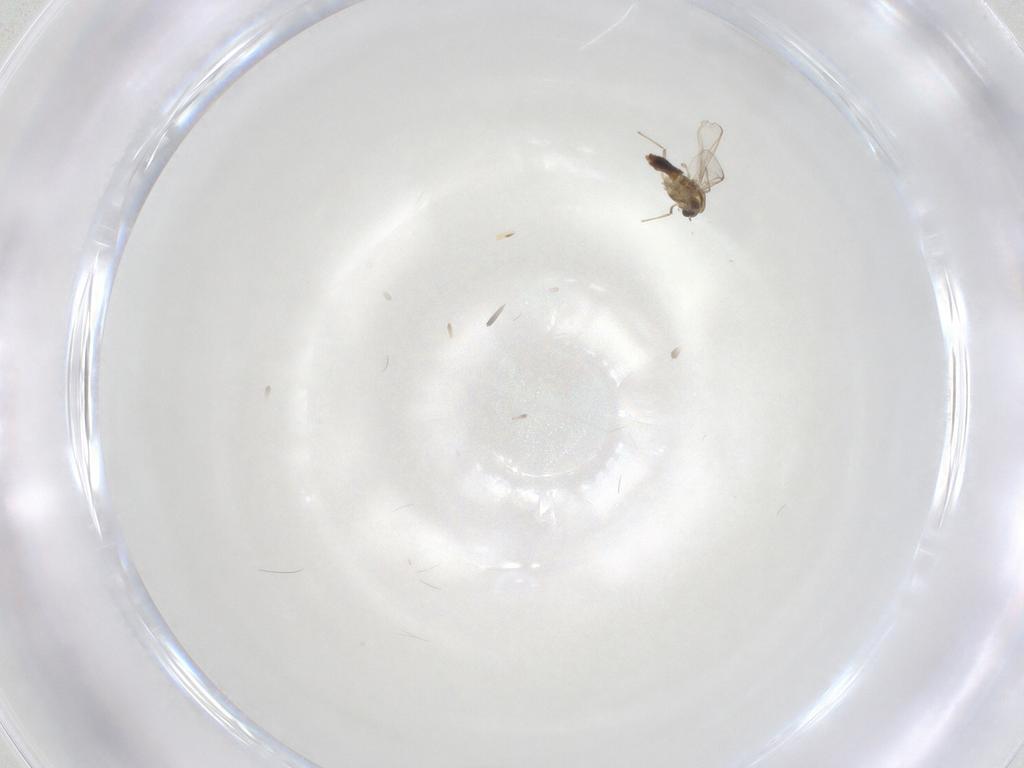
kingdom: Animalia
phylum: Arthropoda
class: Insecta
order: Diptera
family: Chironomidae
